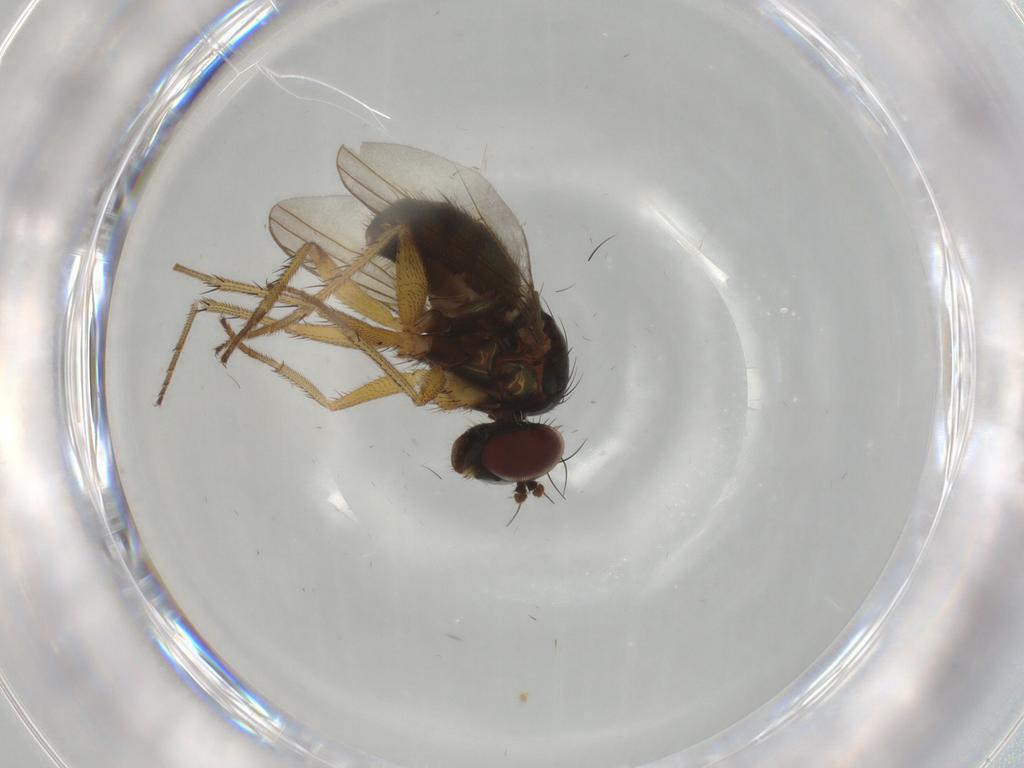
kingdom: Animalia
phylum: Arthropoda
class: Insecta
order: Diptera
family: Dolichopodidae
